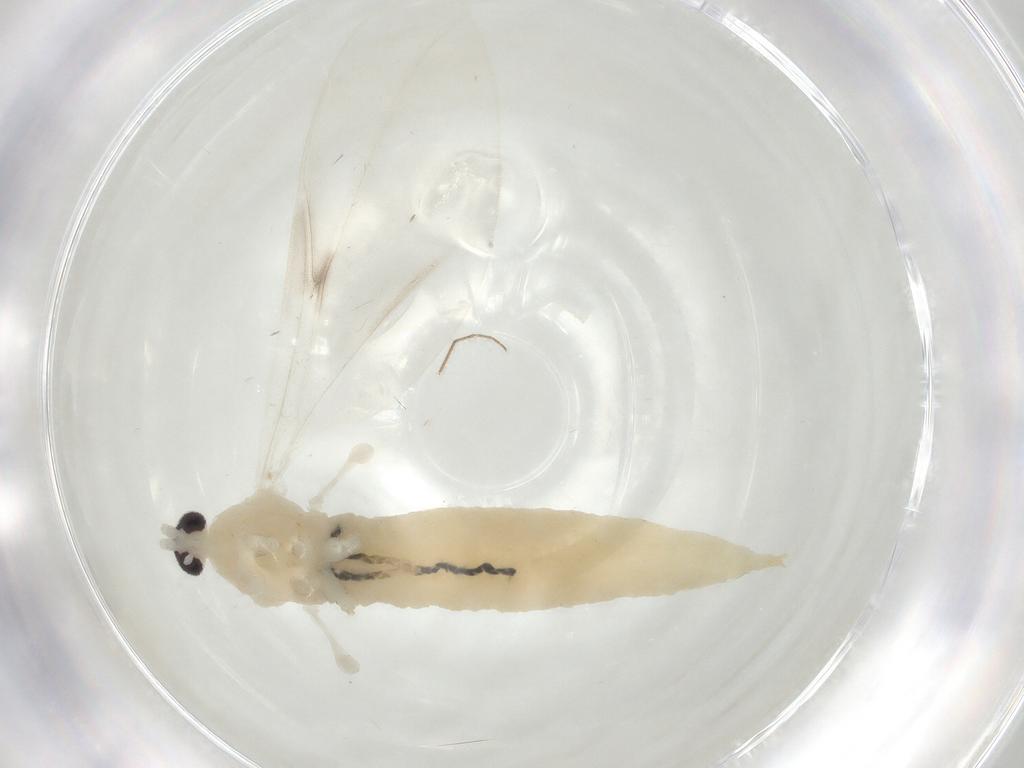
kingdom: Animalia
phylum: Arthropoda
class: Insecta
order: Diptera
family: Cecidomyiidae
